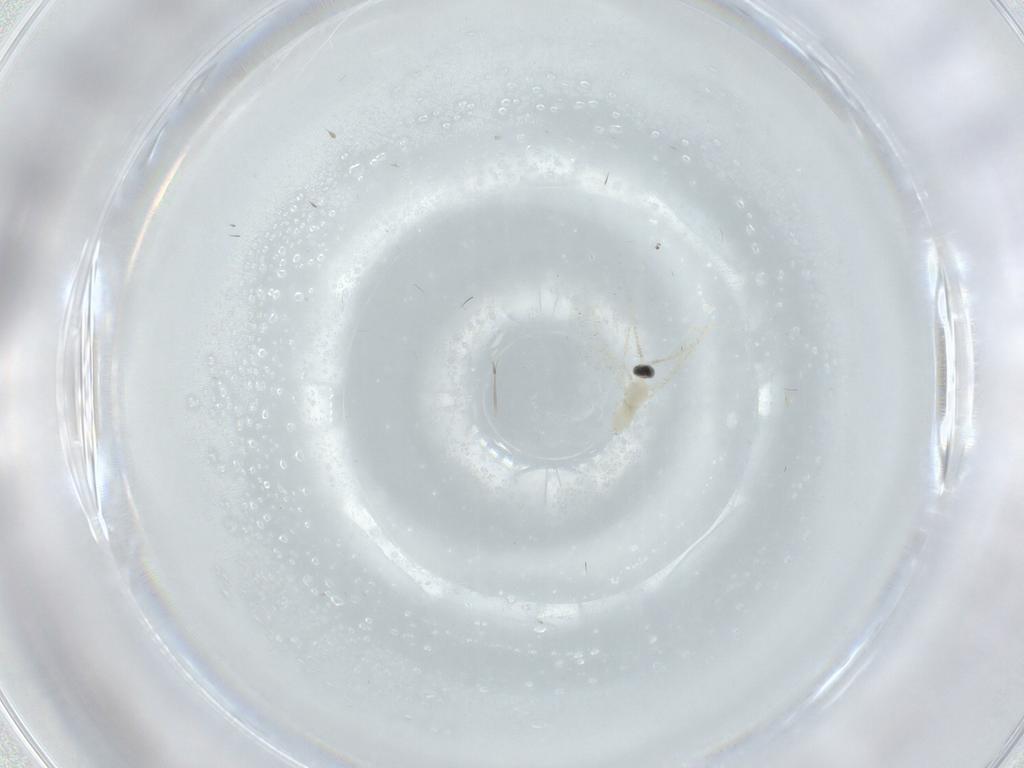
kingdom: Animalia
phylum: Arthropoda
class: Insecta
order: Diptera
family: Cecidomyiidae
